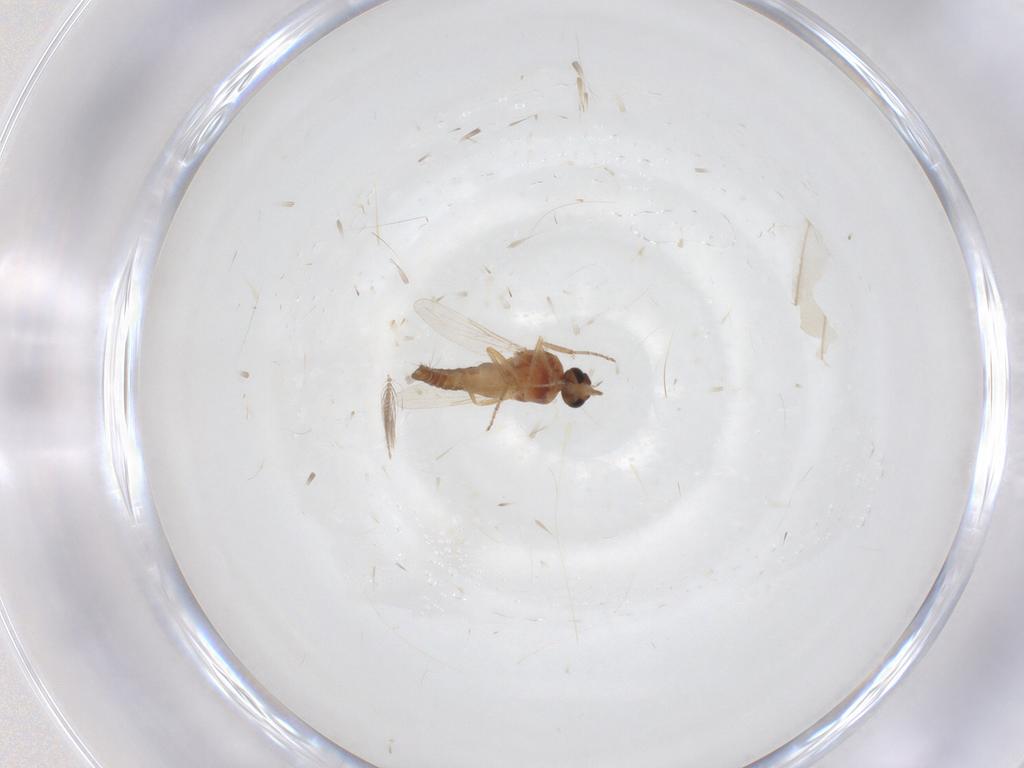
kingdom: Animalia
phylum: Arthropoda
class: Insecta
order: Diptera
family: Ceratopogonidae
